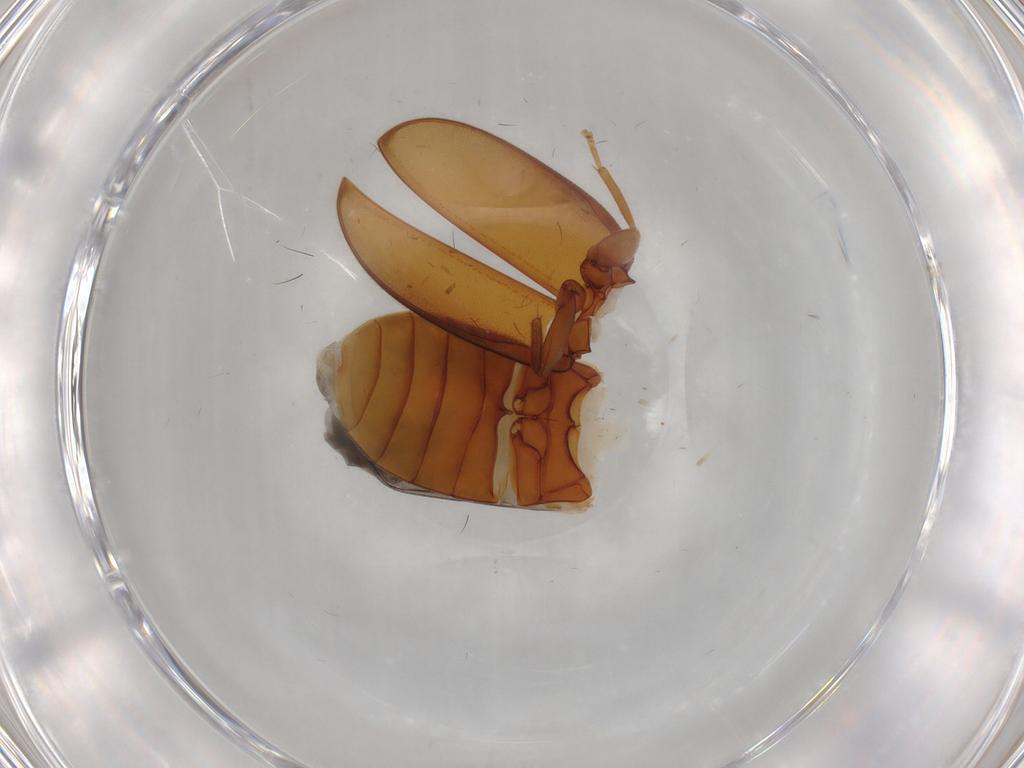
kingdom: Animalia
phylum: Arthropoda
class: Insecta
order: Coleoptera
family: Scirtidae
